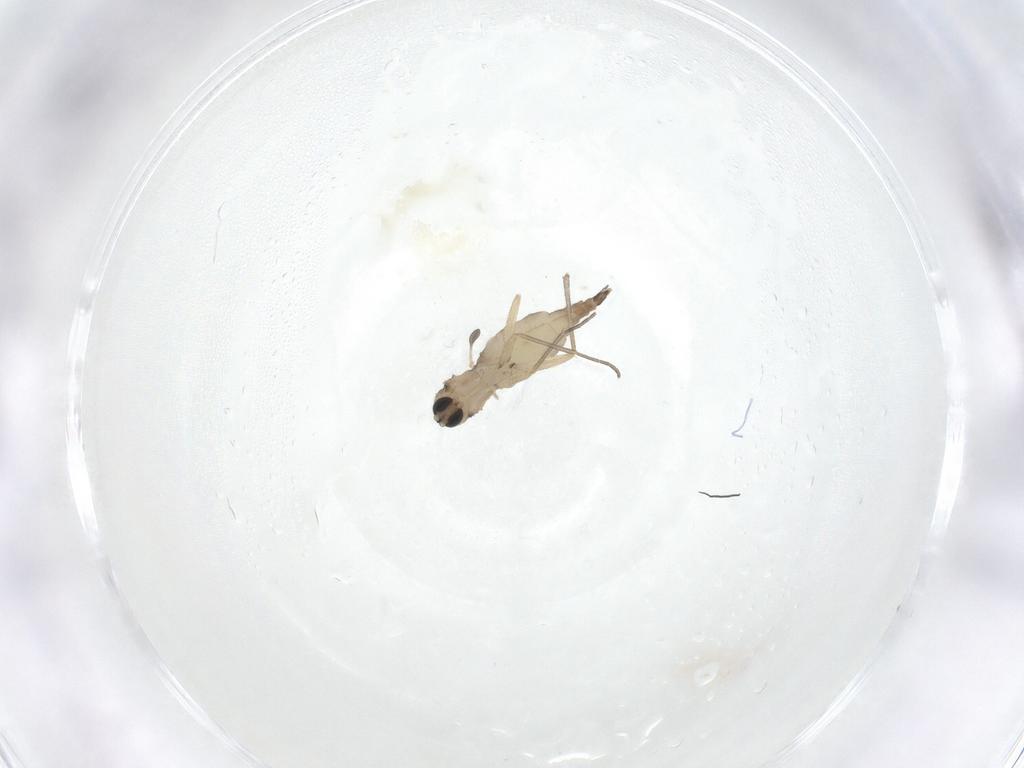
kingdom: Animalia
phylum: Arthropoda
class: Insecta
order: Diptera
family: Sciaridae
